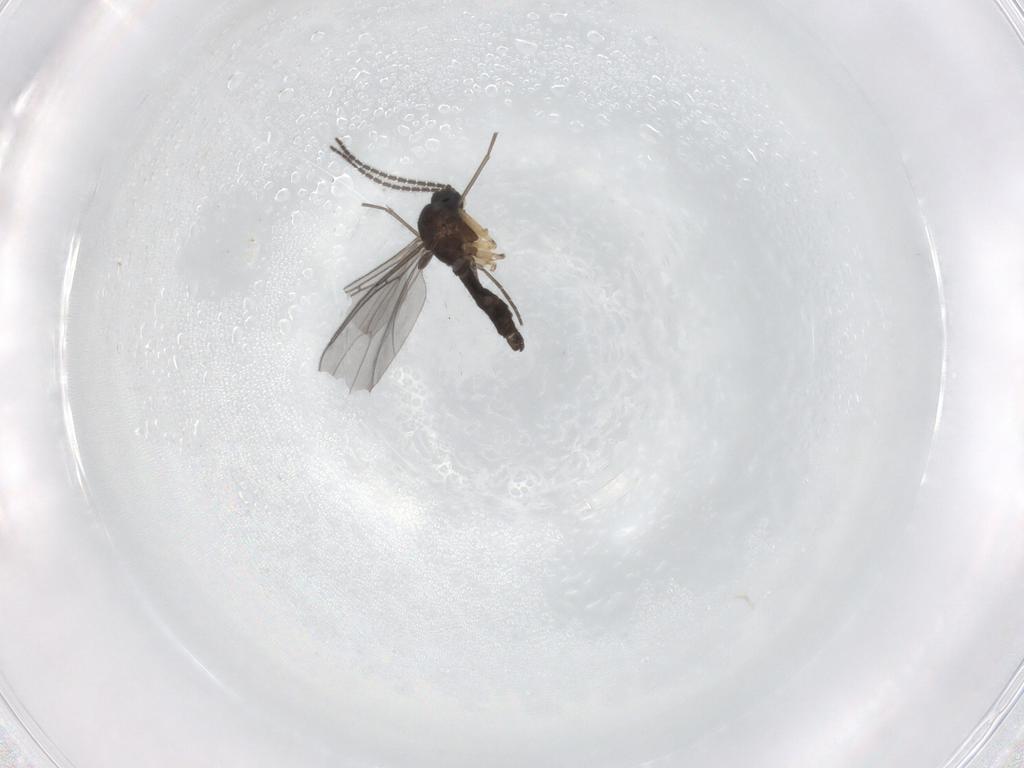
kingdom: Animalia
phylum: Arthropoda
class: Insecta
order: Diptera
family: Sciaridae
